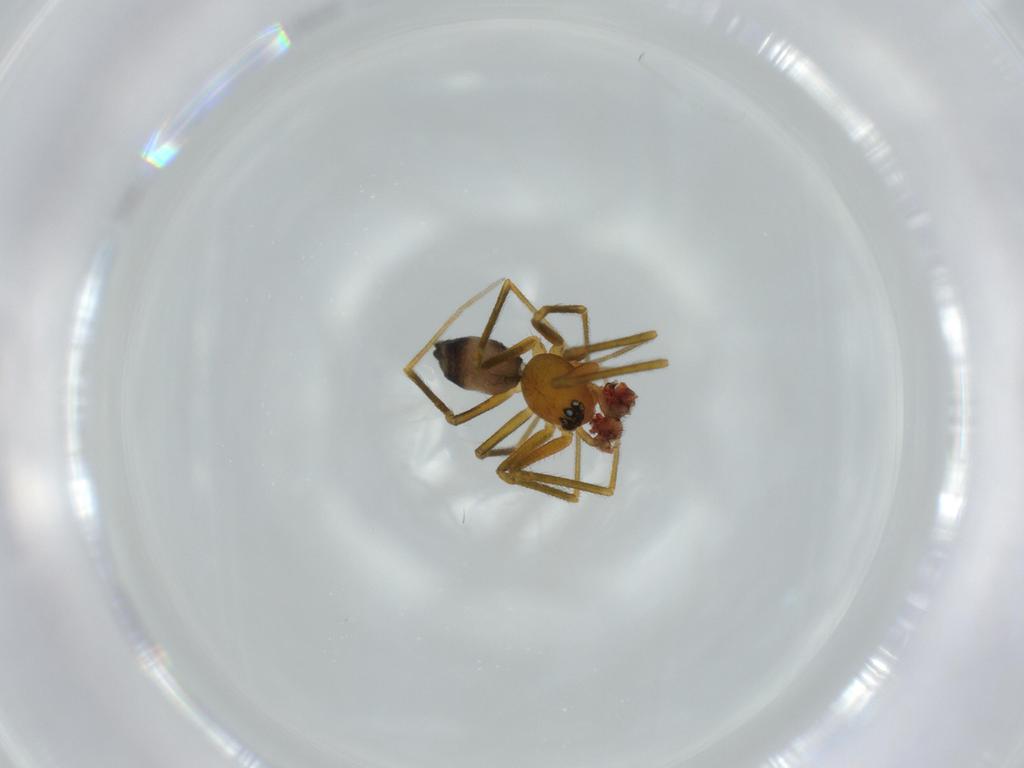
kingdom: Animalia
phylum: Arthropoda
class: Arachnida
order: Araneae
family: Linyphiidae
